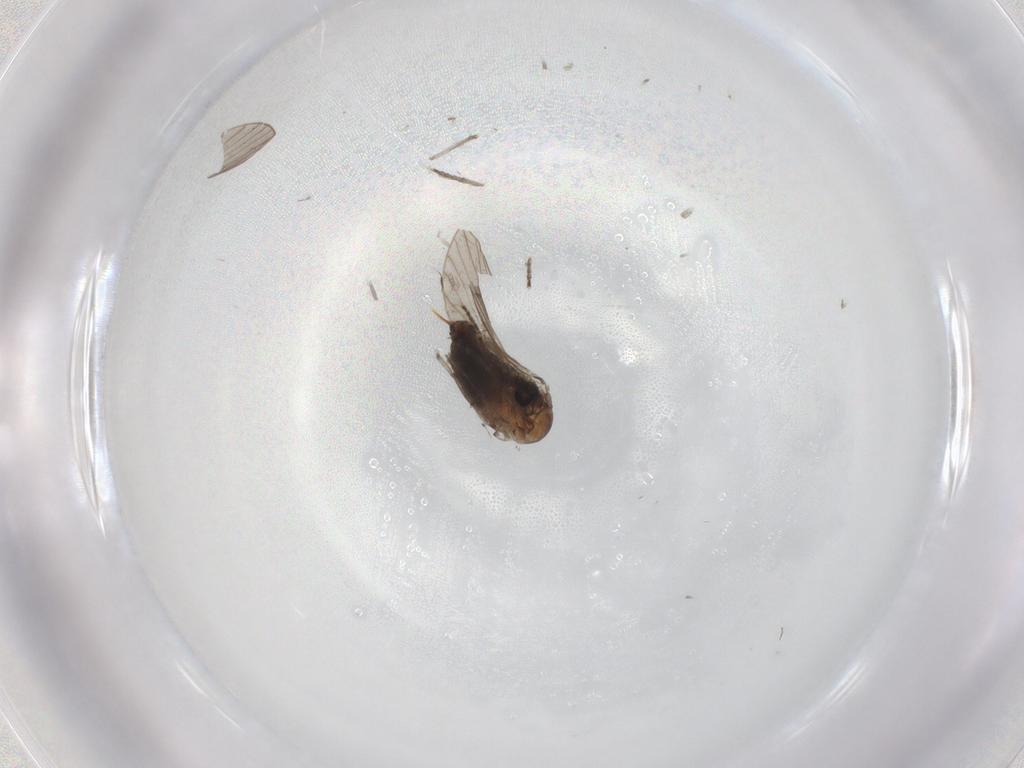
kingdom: Animalia
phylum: Arthropoda
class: Insecta
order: Diptera
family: Psychodidae
